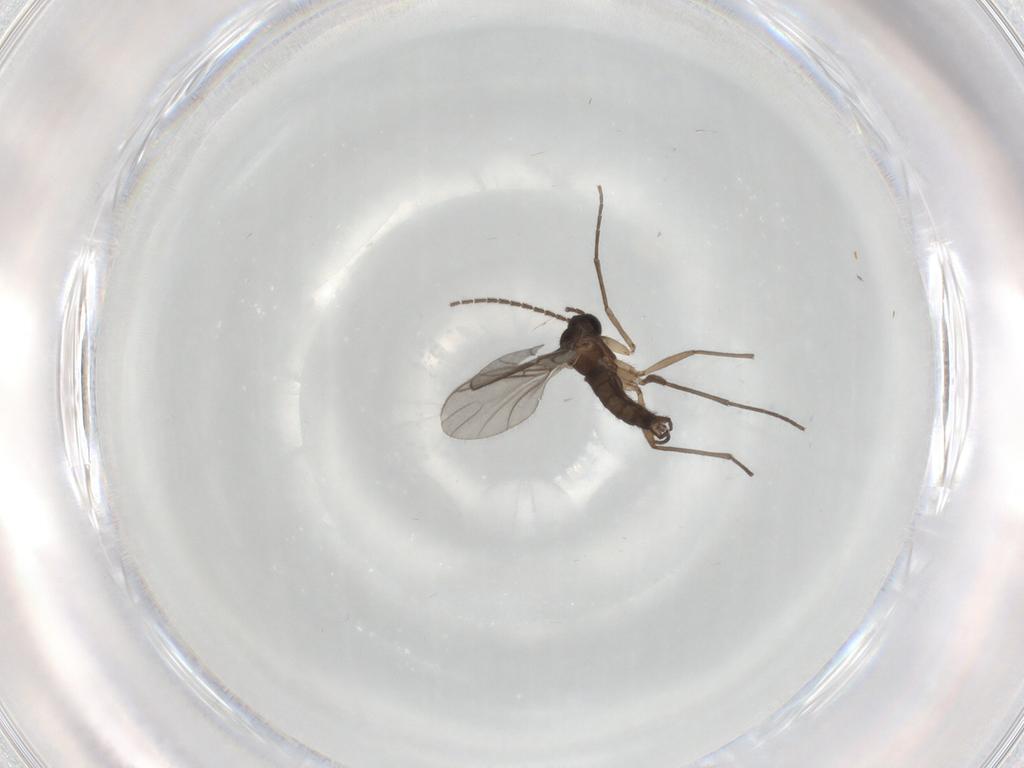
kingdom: Animalia
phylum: Arthropoda
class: Insecta
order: Diptera
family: Sciaridae
